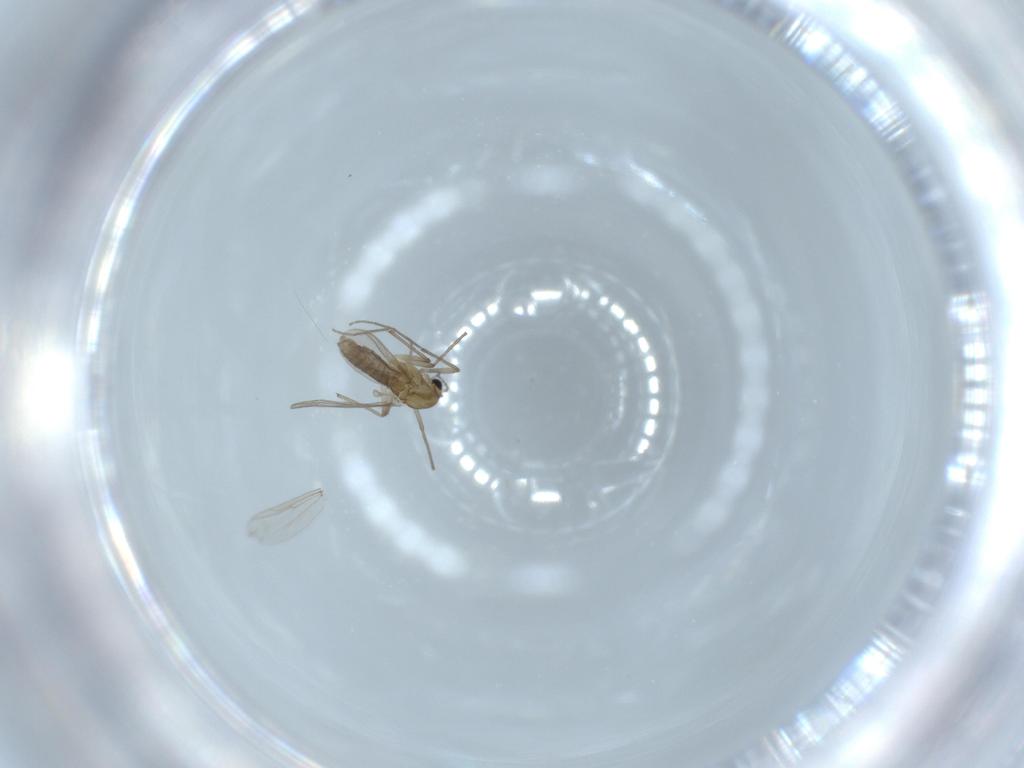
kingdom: Animalia
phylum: Arthropoda
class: Insecta
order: Diptera
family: Chironomidae
